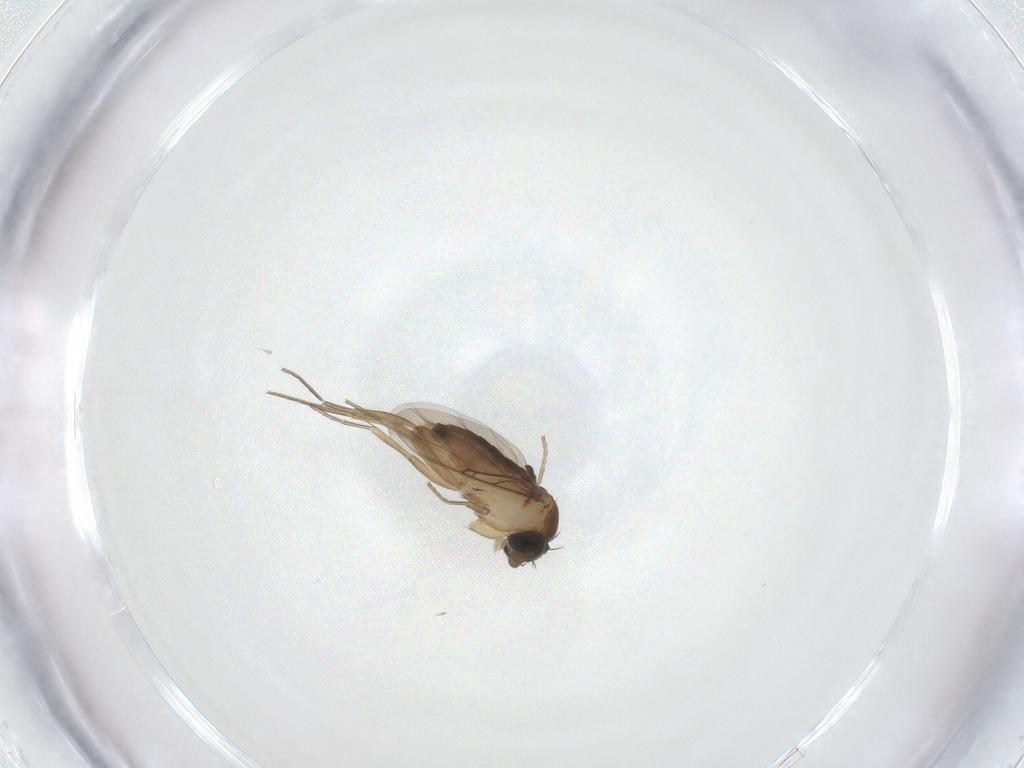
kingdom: Animalia
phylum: Arthropoda
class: Insecta
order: Diptera
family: Phoridae
